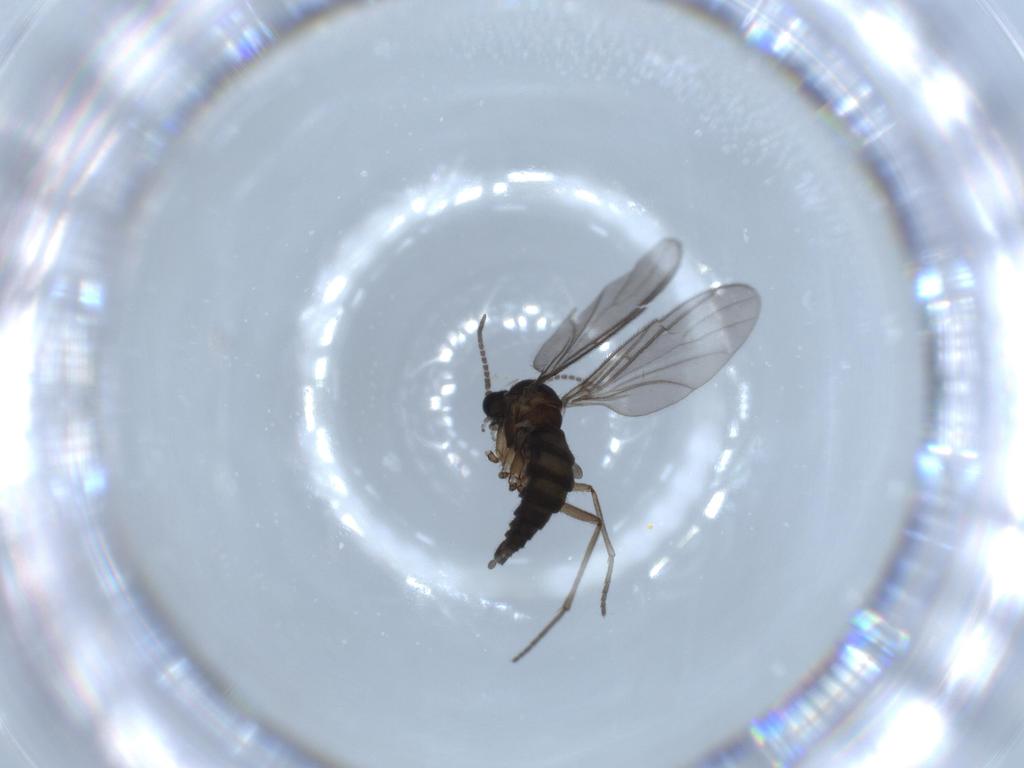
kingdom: Animalia
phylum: Arthropoda
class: Insecta
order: Diptera
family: Sciaridae
